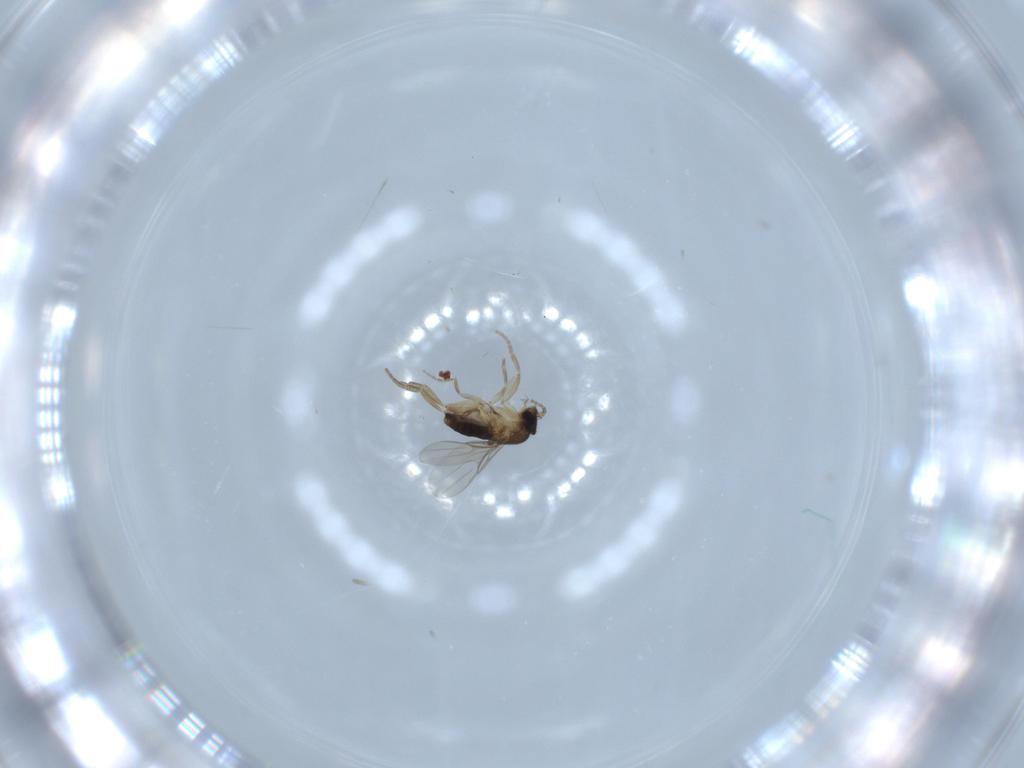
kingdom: Animalia
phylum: Arthropoda
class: Insecta
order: Diptera
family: Phoridae
